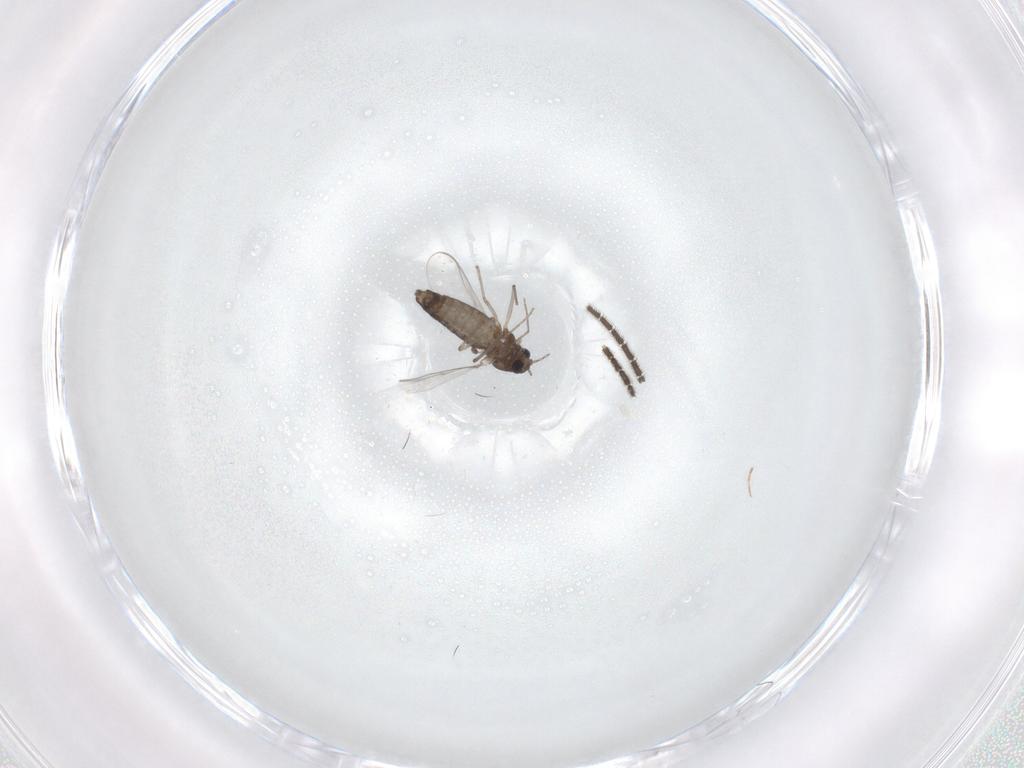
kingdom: Animalia
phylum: Arthropoda
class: Insecta
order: Diptera
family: Chironomidae
